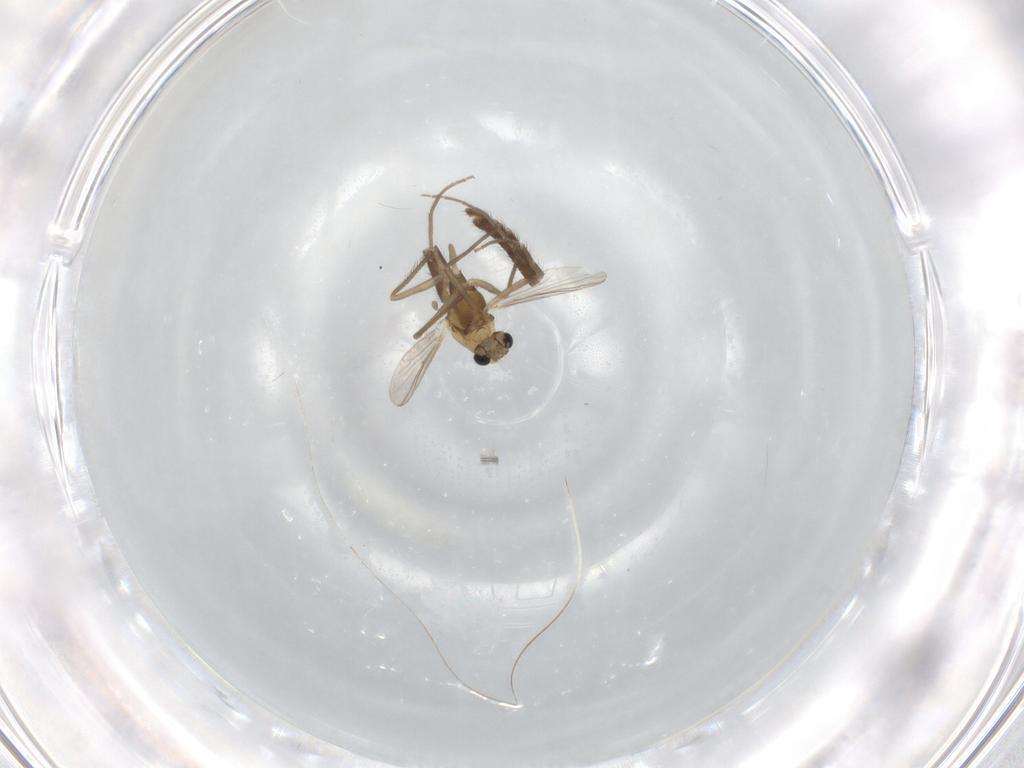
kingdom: Animalia
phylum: Arthropoda
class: Insecta
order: Diptera
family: Chironomidae
